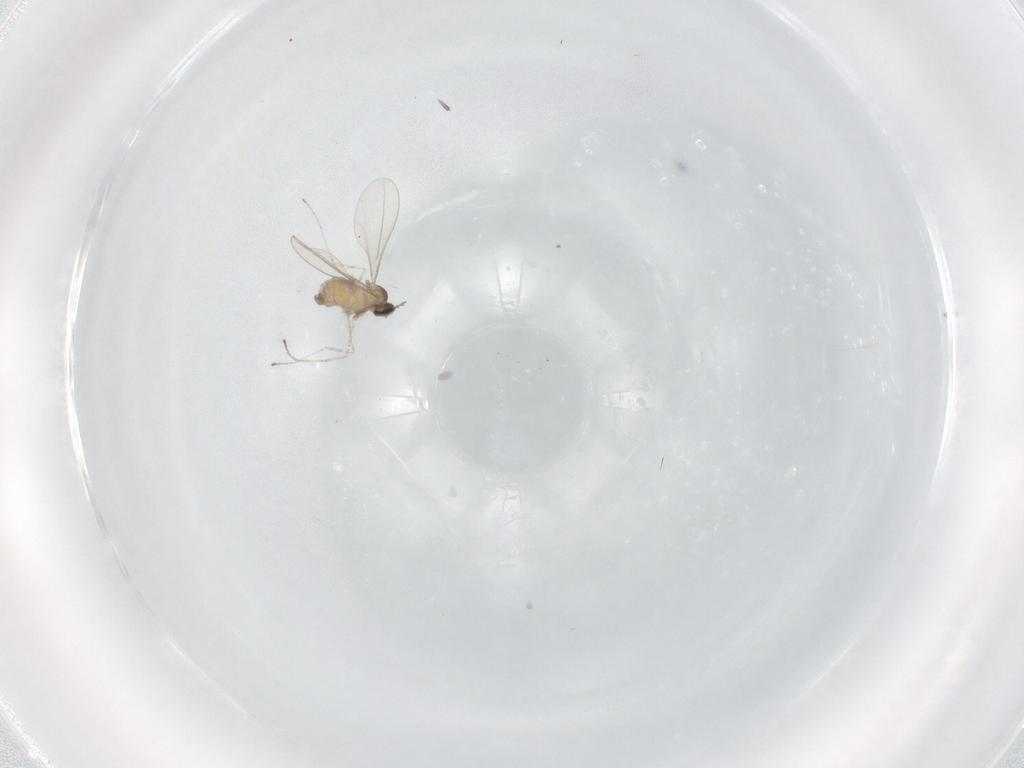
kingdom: Animalia
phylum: Arthropoda
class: Insecta
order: Diptera
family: Cecidomyiidae
